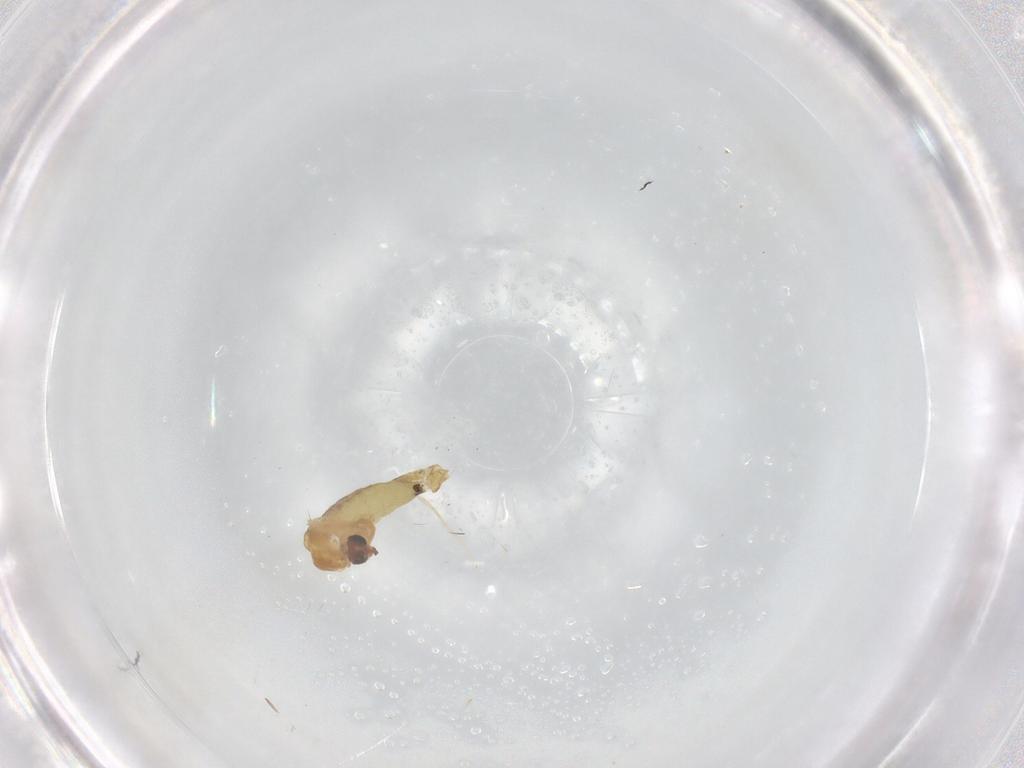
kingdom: Animalia
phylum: Arthropoda
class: Insecta
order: Diptera
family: Chironomidae
